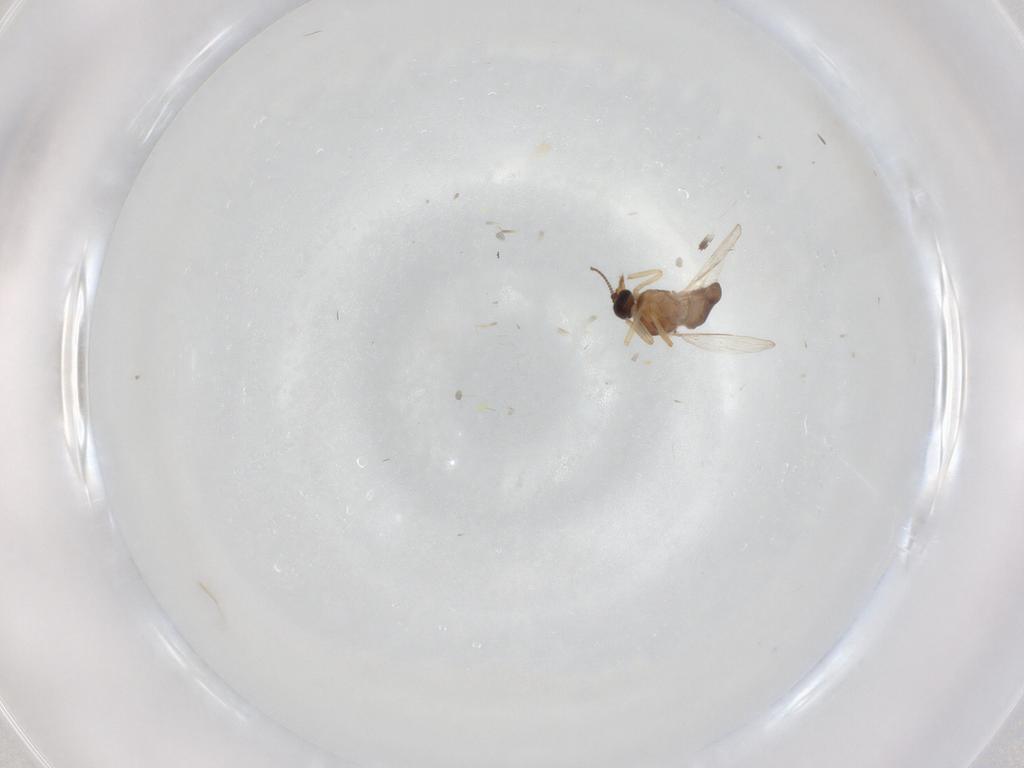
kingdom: Animalia
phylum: Arthropoda
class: Insecta
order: Diptera
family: Ceratopogonidae
